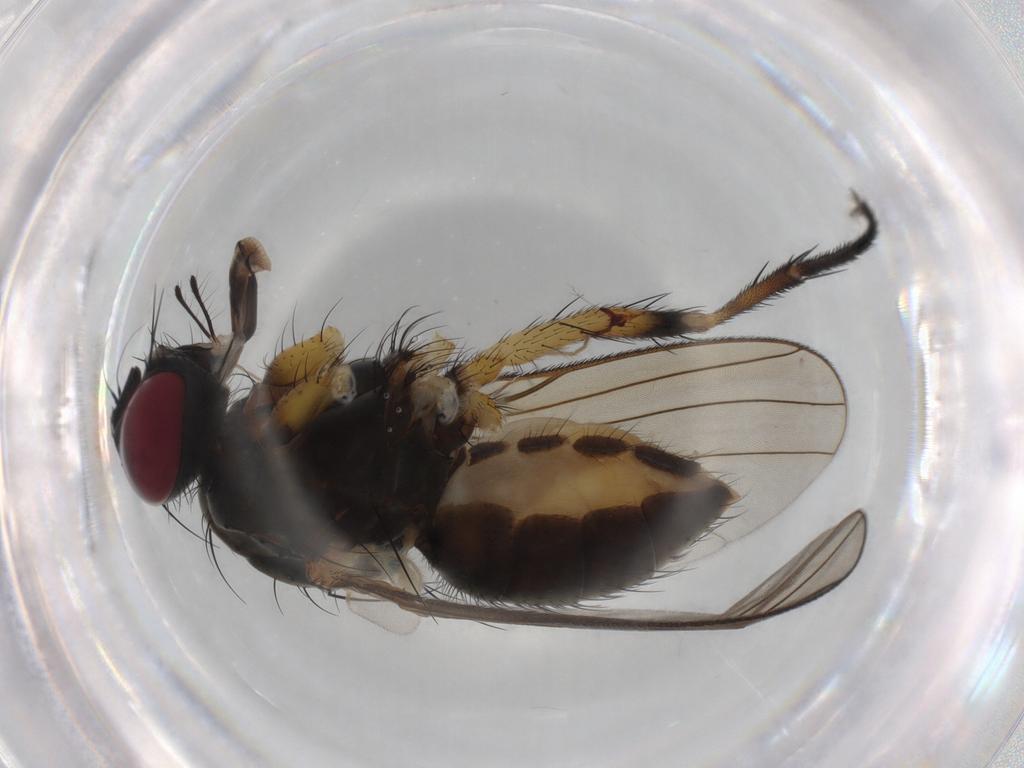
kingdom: Animalia
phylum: Arthropoda
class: Insecta
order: Diptera
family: Muscidae
